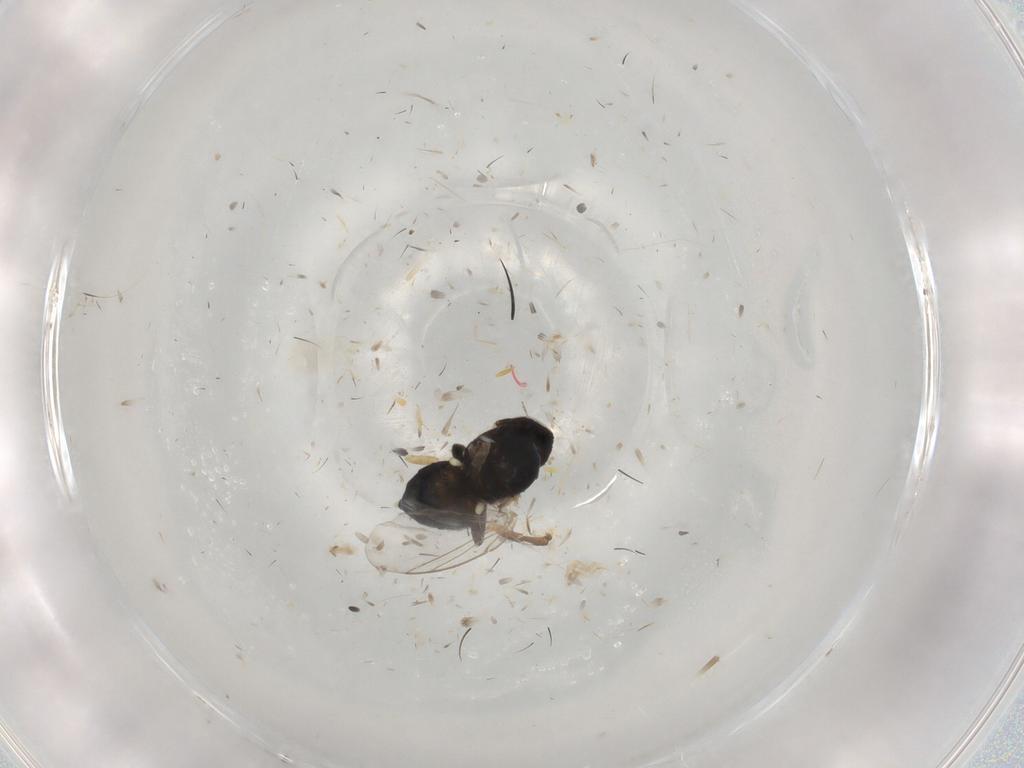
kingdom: Animalia
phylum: Arthropoda
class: Insecta
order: Diptera
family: Agromyzidae
